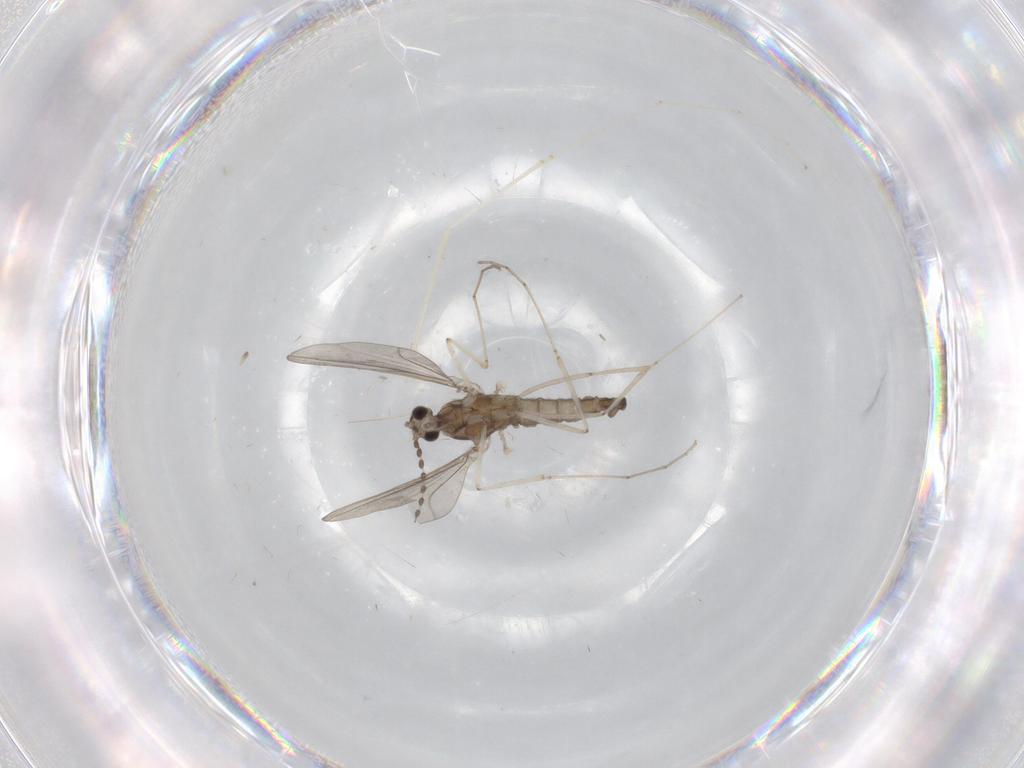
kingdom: Animalia
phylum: Arthropoda
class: Insecta
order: Diptera
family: Cecidomyiidae
